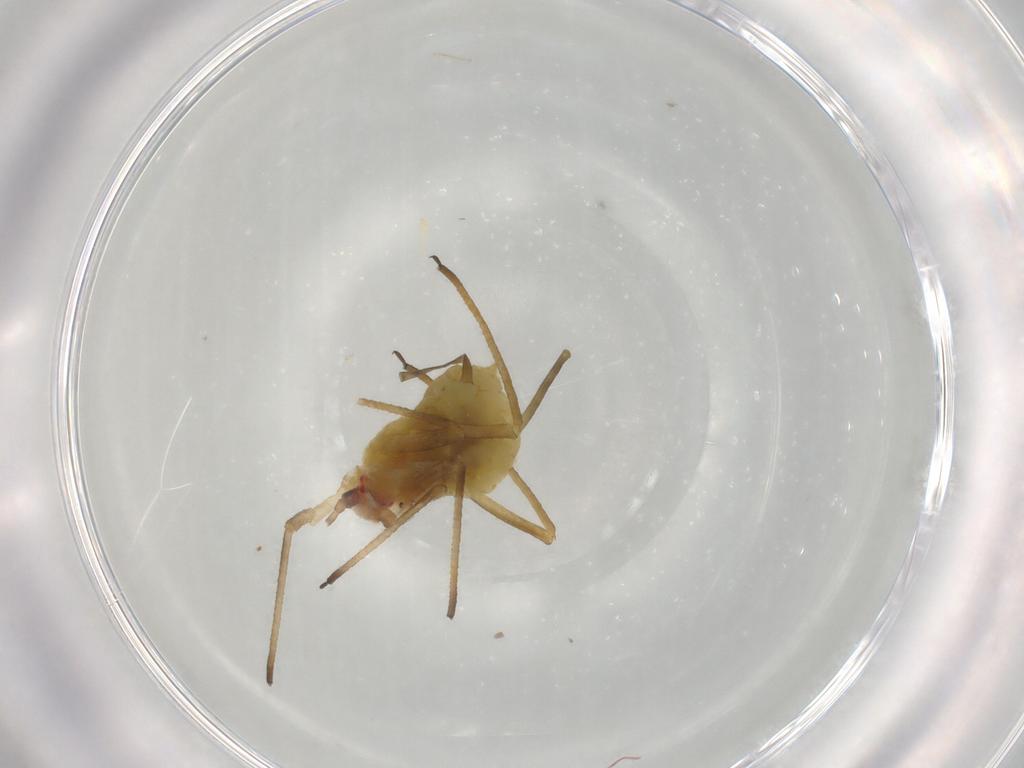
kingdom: Animalia
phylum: Arthropoda
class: Insecta
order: Hemiptera
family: Aphididae
